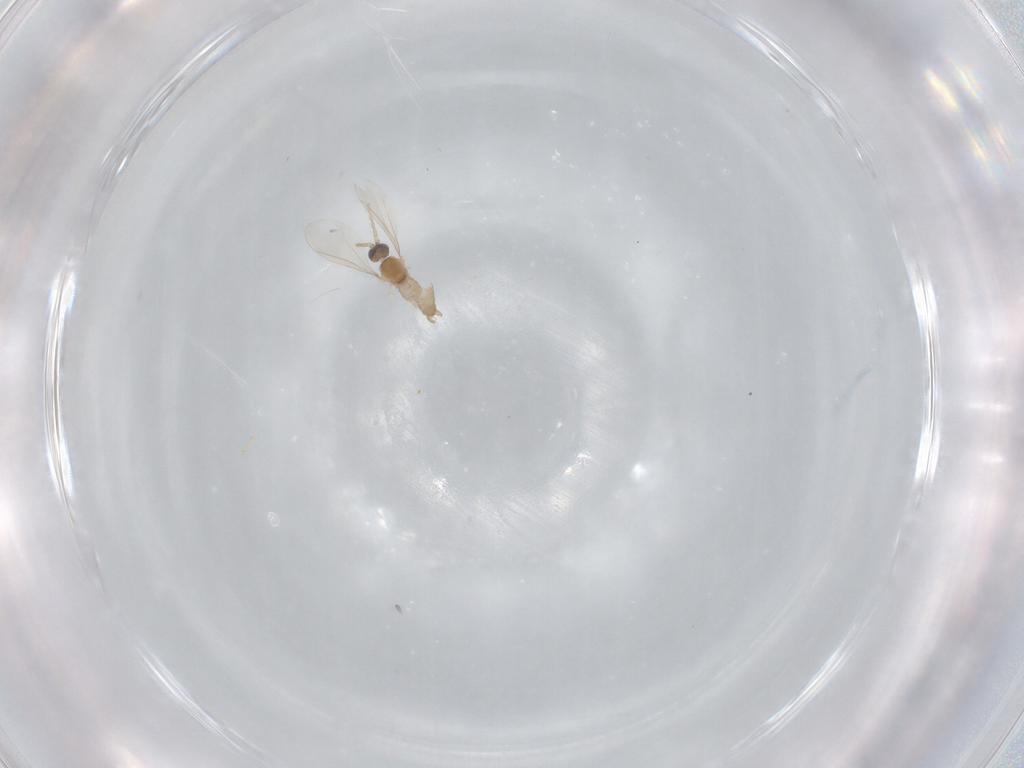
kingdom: Animalia
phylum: Arthropoda
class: Insecta
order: Diptera
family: Cecidomyiidae
